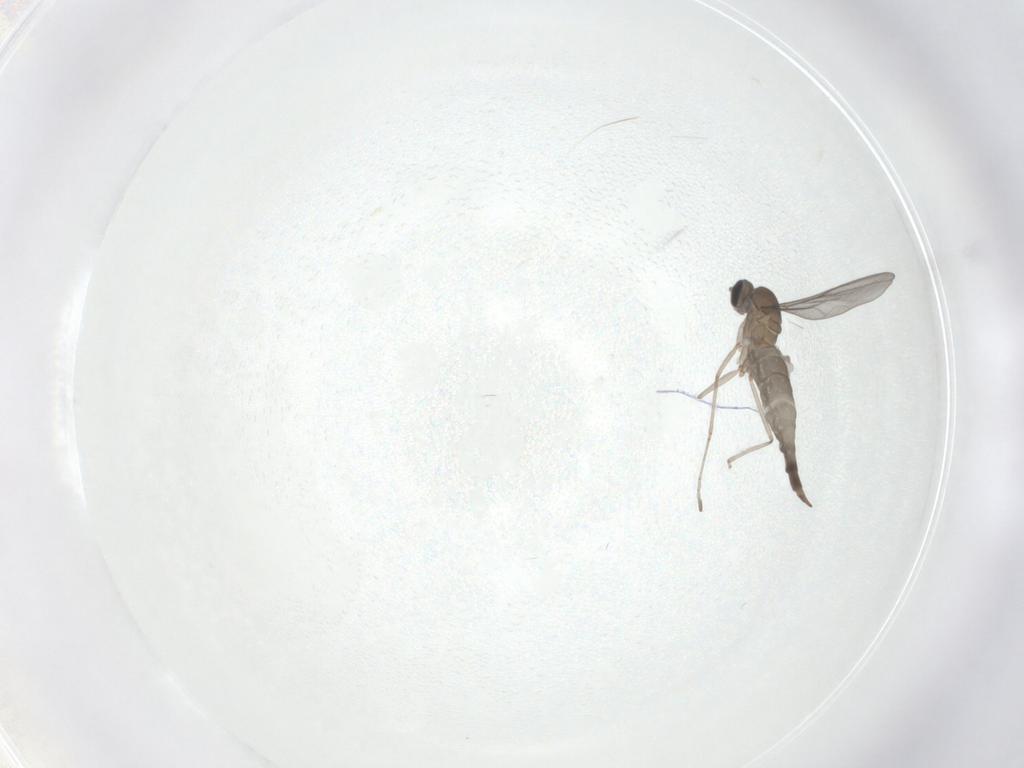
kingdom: Animalia
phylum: Arthropoda
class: Insecta
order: Diptera
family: Cecidomyiidae
